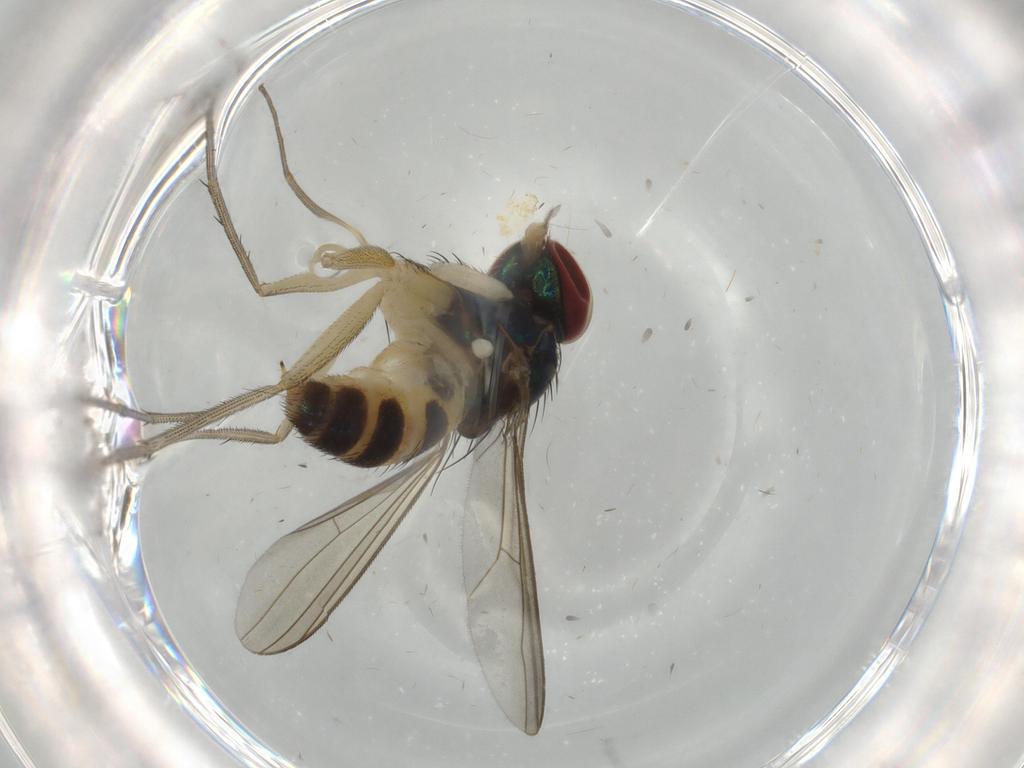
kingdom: Animalia
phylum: Arthropoda
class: Insecta
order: Diptera
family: Dolichopodidae
